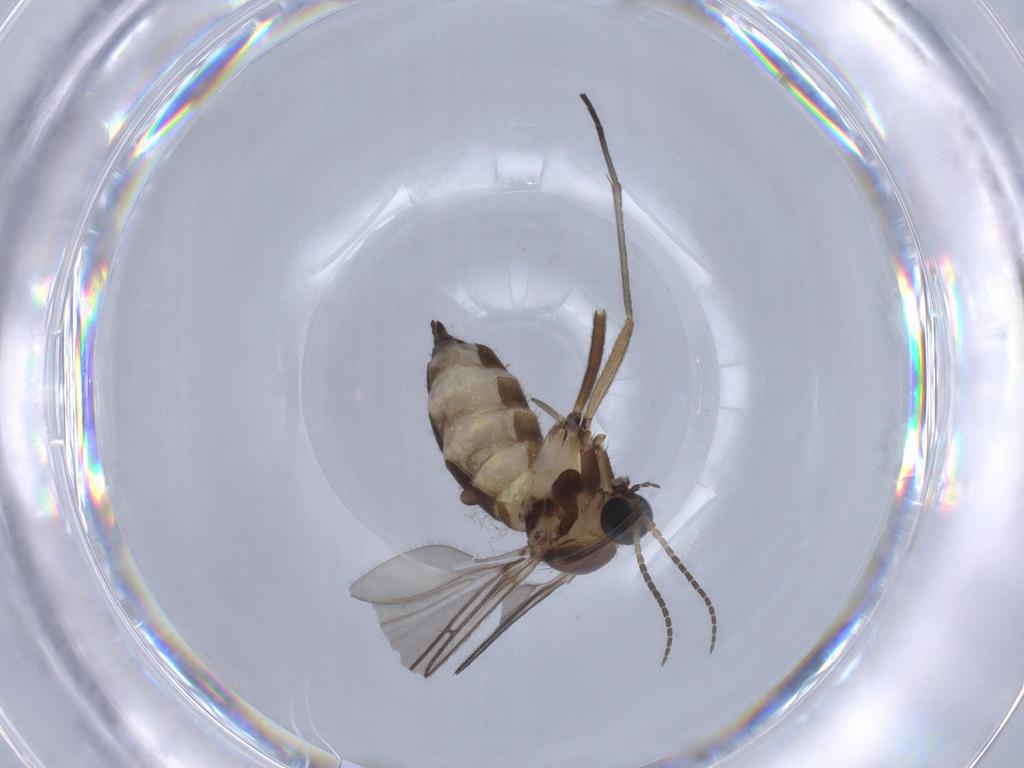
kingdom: Animalia
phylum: Arthropoda
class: Insecta
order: Diptera
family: Sciaridae
